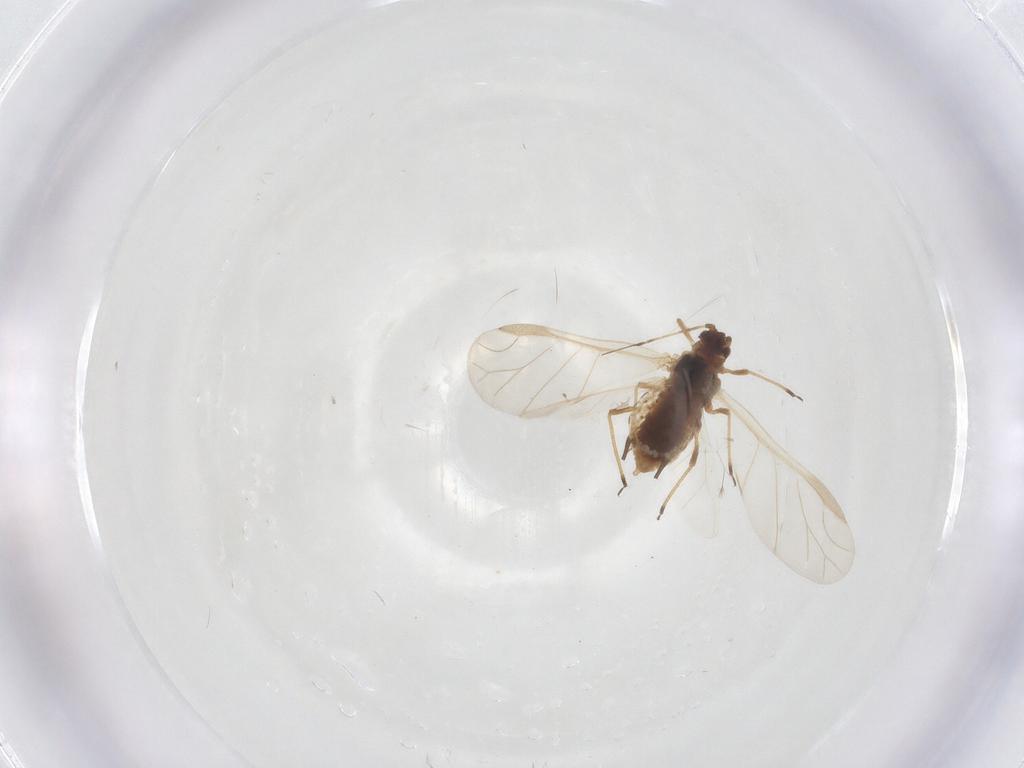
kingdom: Animalia
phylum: Arthropoda
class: Insecta
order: Hemiptera
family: Aphididae
